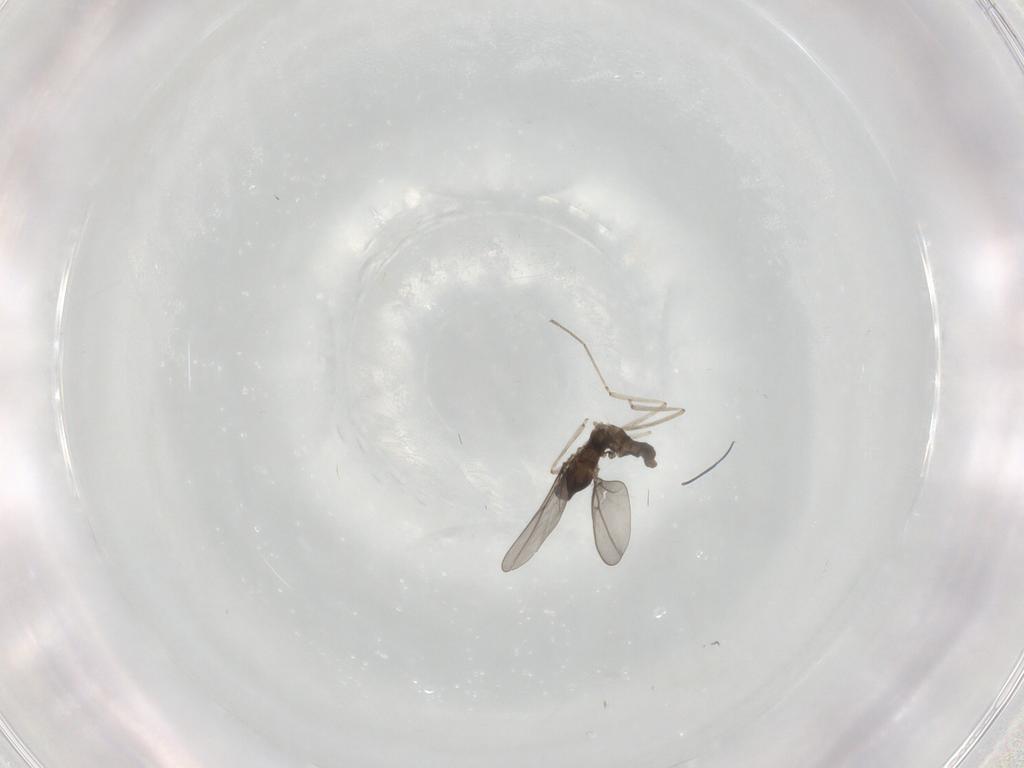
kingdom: Animalia
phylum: Arthropoda
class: Insecta
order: Diptera
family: Cecidomyiidae
